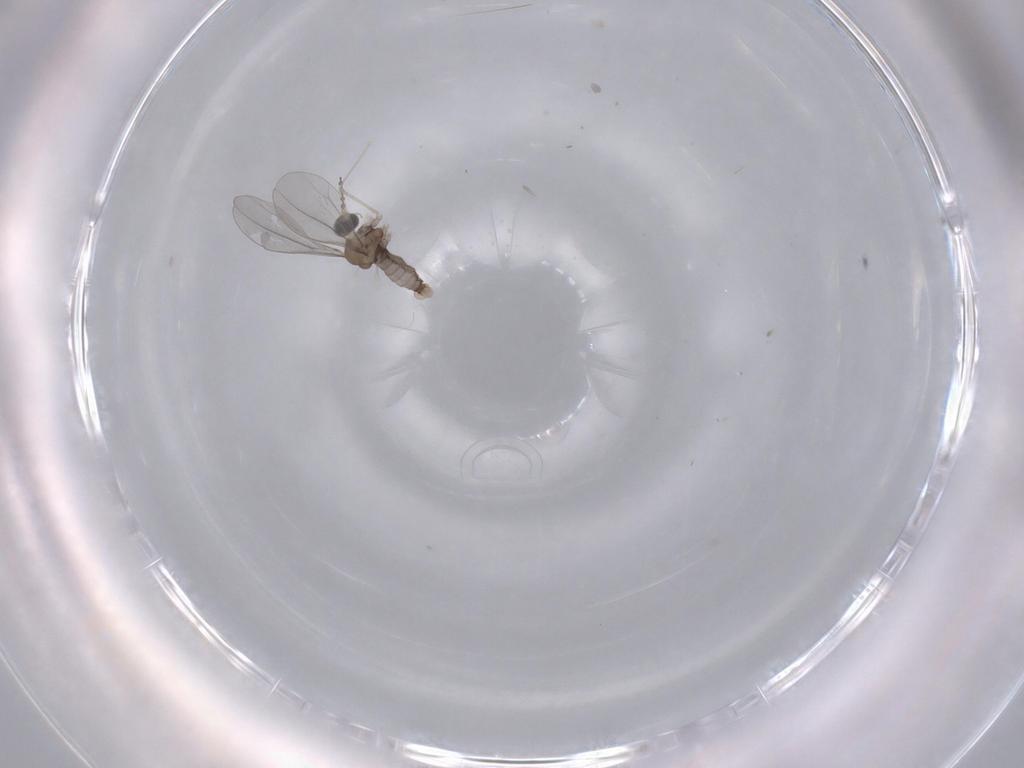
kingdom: Animalia
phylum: Arthropoda
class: Insecta
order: Diptera
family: Cecidomyiidae
